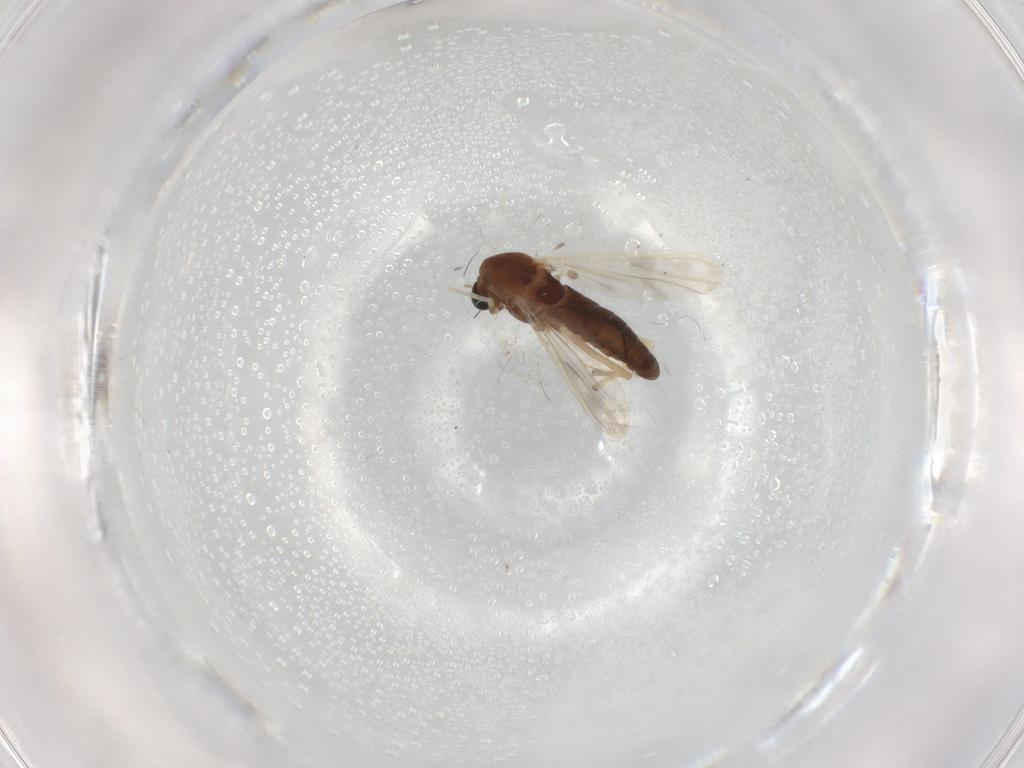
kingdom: Animalia
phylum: Arthropoda
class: Insecta
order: Diptera
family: Chironomidae
